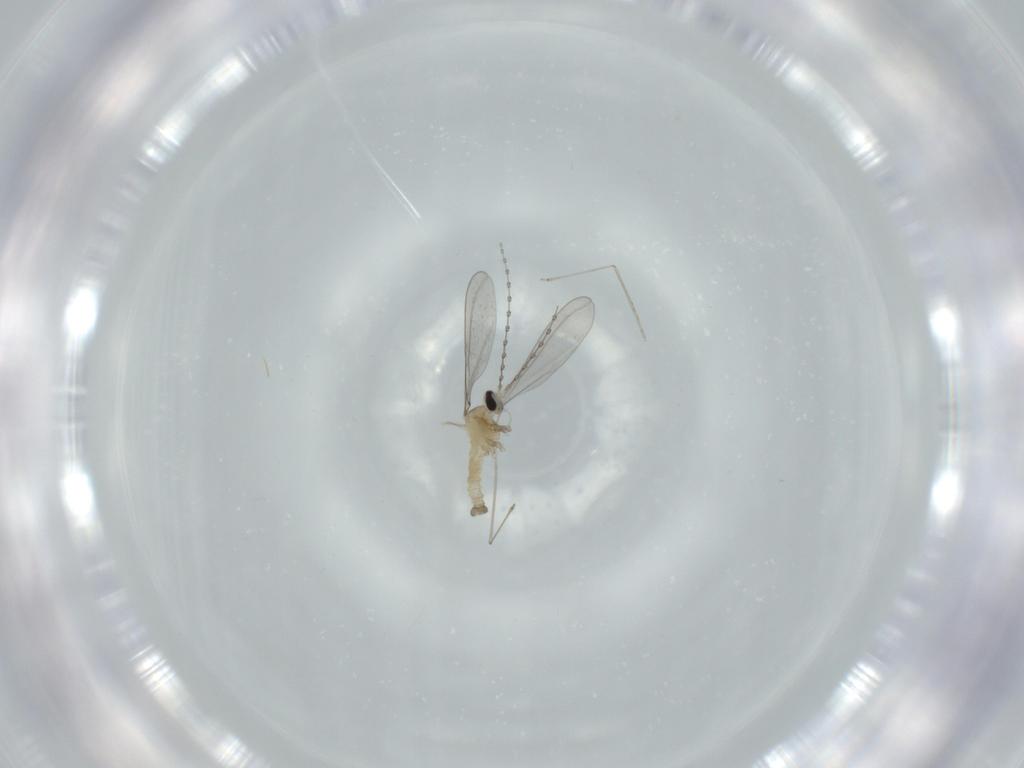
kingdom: Animalia
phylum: Arthropoda
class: Insecta
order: Diptera
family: Cecidomyiidae
